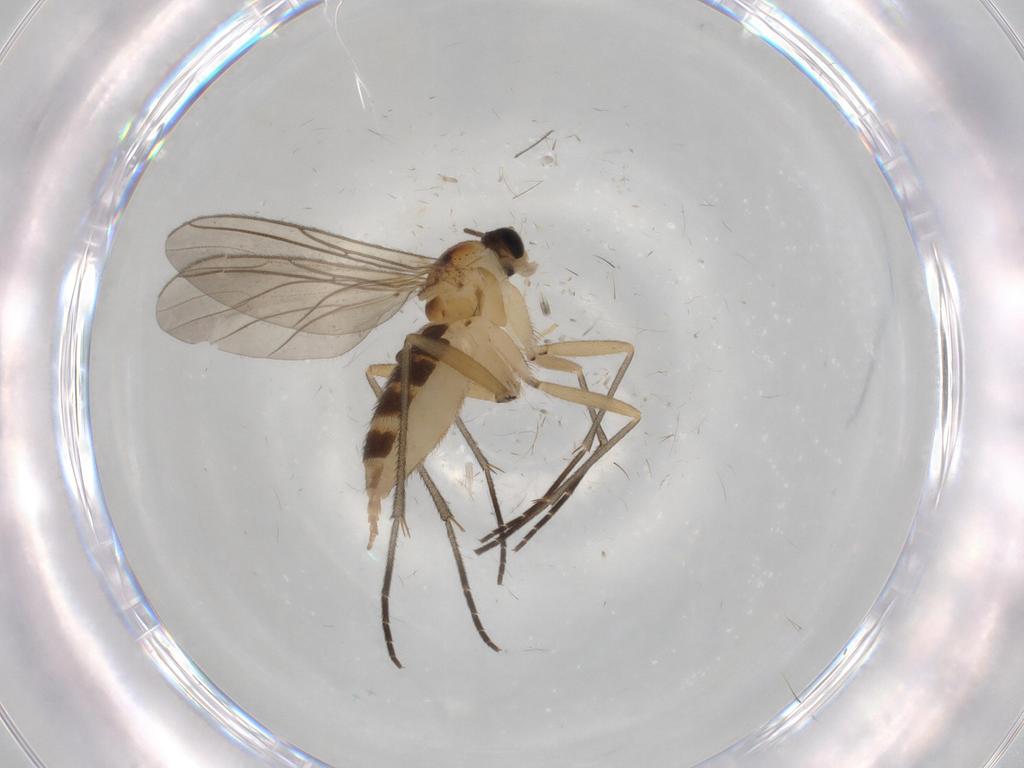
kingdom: Animalia
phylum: Arthropoda
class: Insecta
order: Diptera
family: Sciaridae
